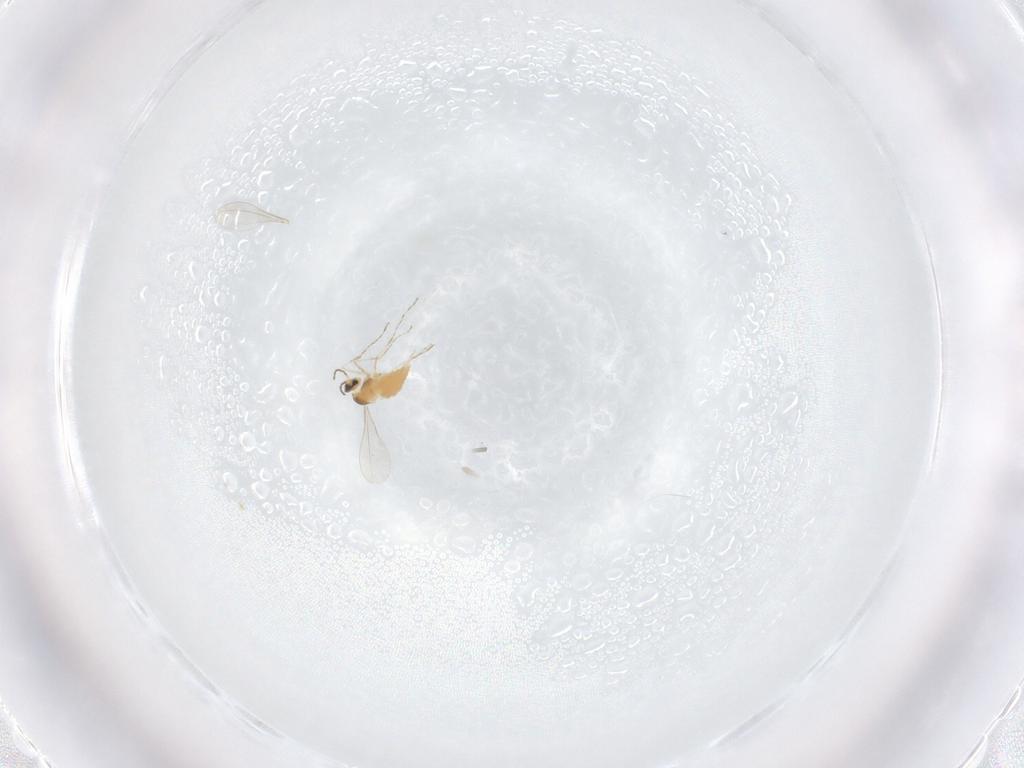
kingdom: Animalia
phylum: Arthropoda
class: Insecta
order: Diptera
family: Cecidomyiidae
